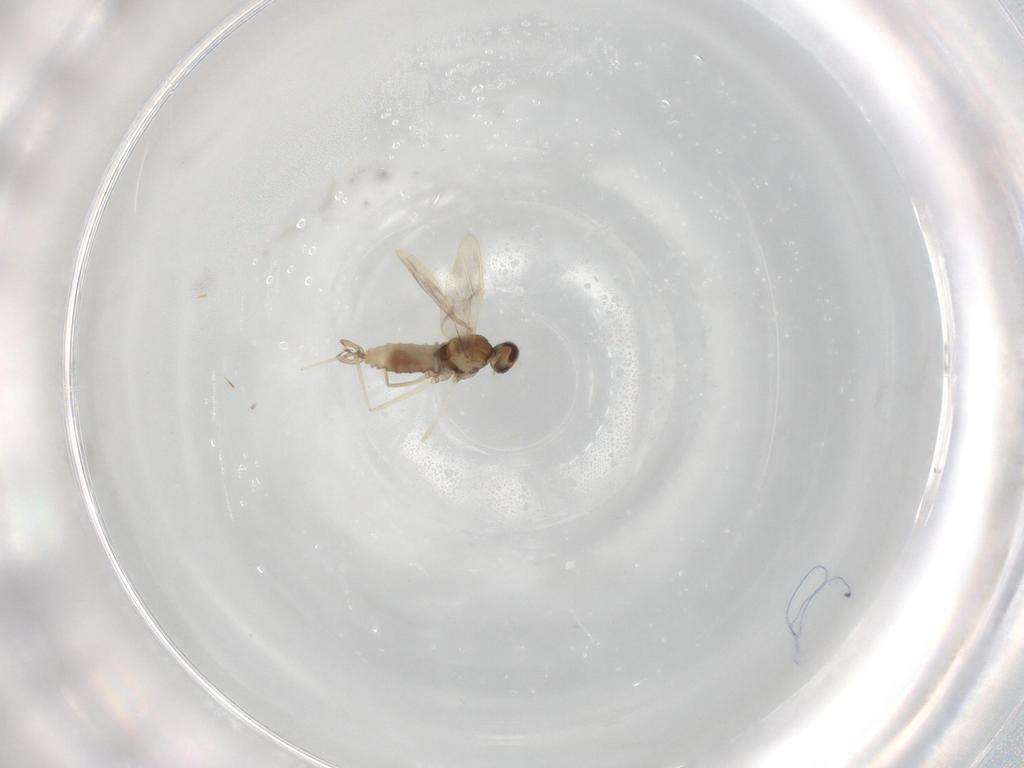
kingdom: Animalia
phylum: Arthropoda
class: Insecta
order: Diptera
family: Cecidomyiidae
